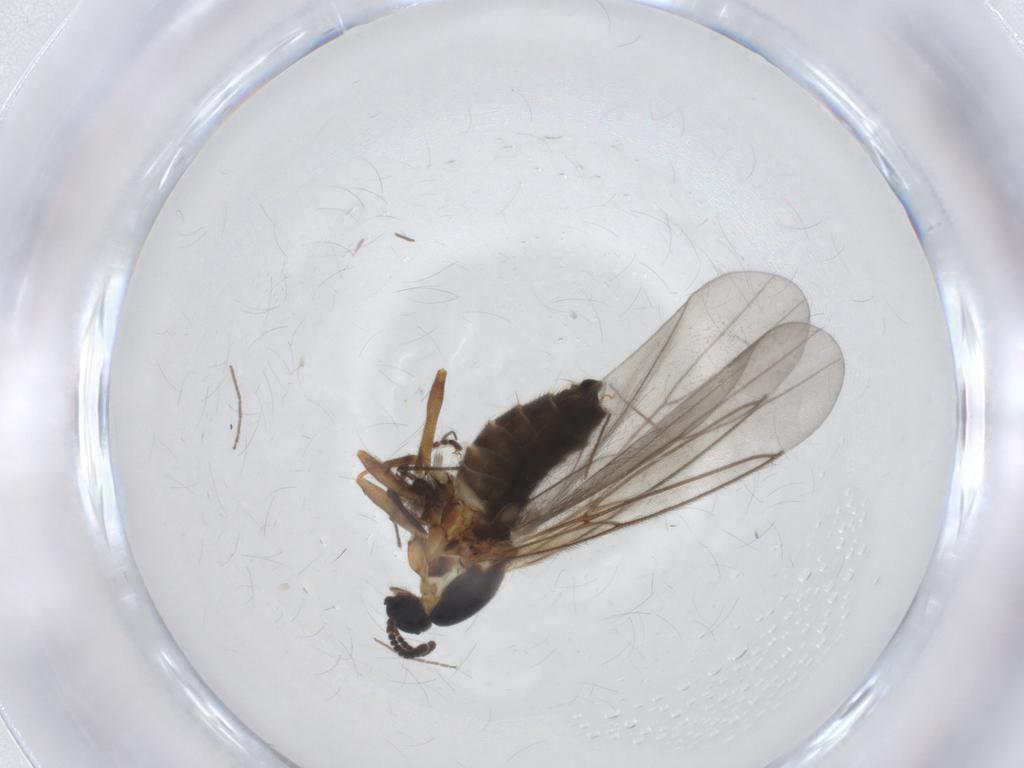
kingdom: Animalia
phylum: Arthropoda
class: Insecta
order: Diptera
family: Scatopsidae
